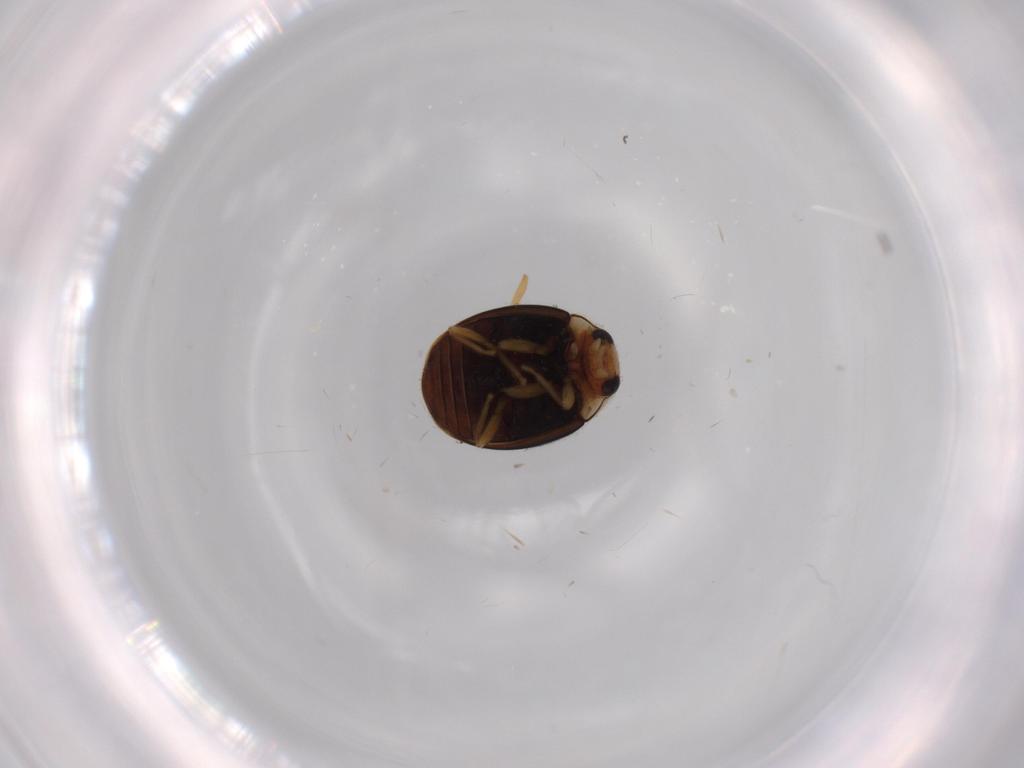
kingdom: Animalia
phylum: Arthropoda
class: Insecta
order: Coleoptera
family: Coccinellidae
